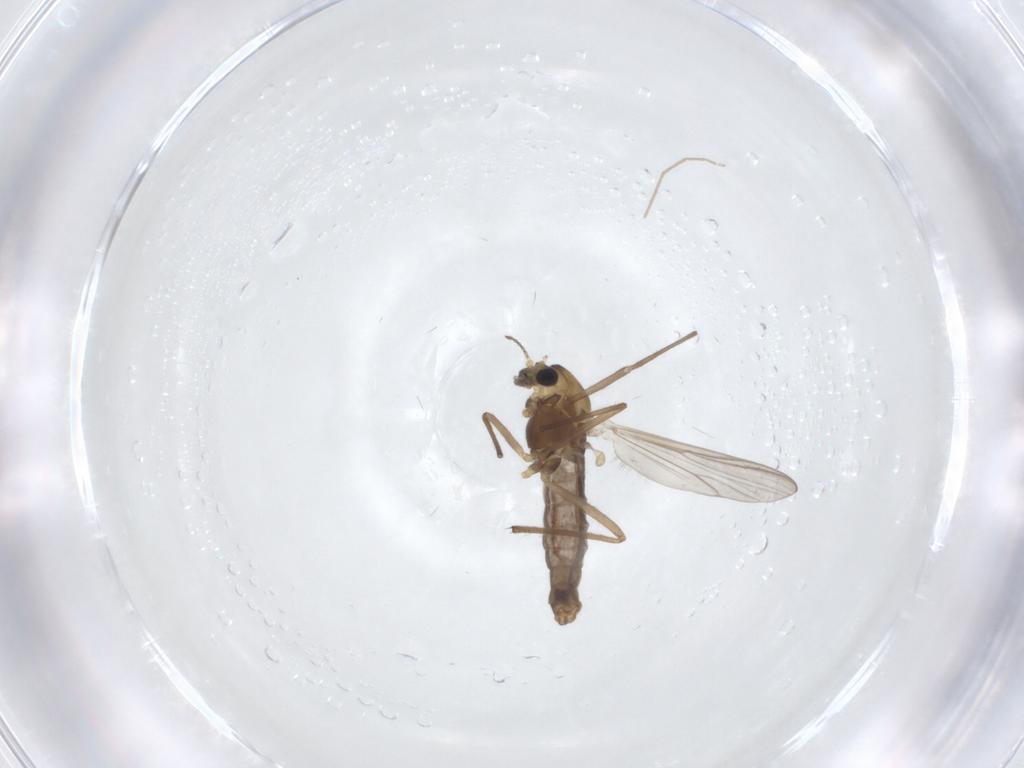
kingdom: Animalia
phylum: Arthropoda
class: Insecta
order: Diptera
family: Chironomidae
